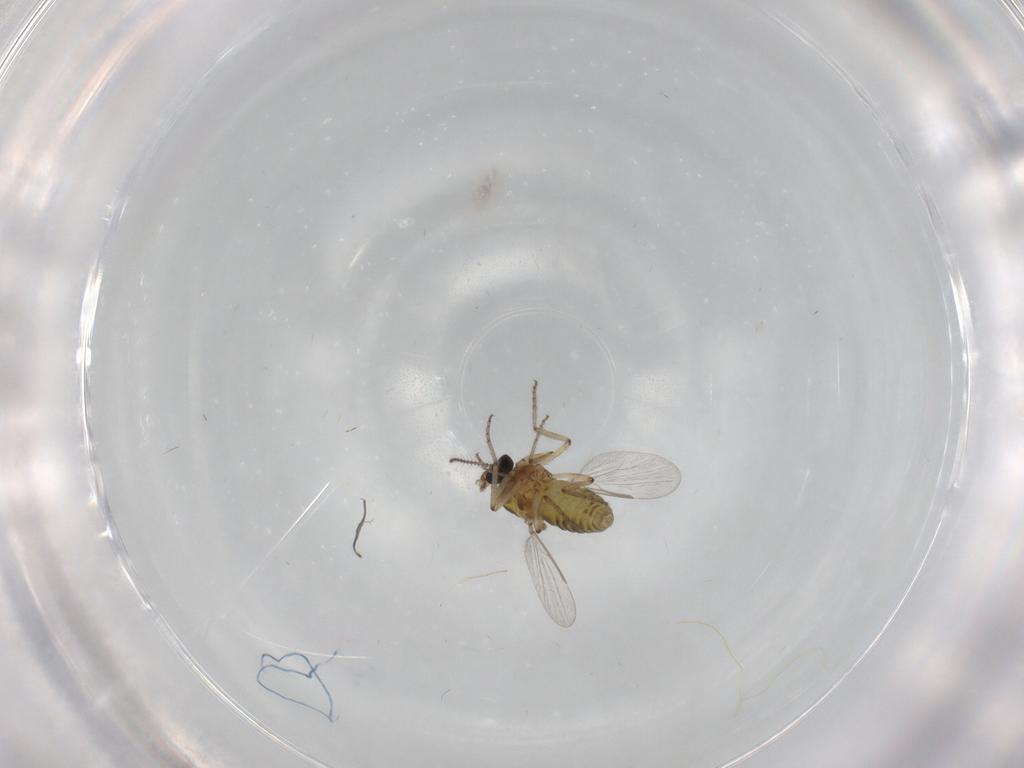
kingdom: Animalia
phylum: Arthropoda
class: Insecta
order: Diptera
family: Ceratopogonidae
